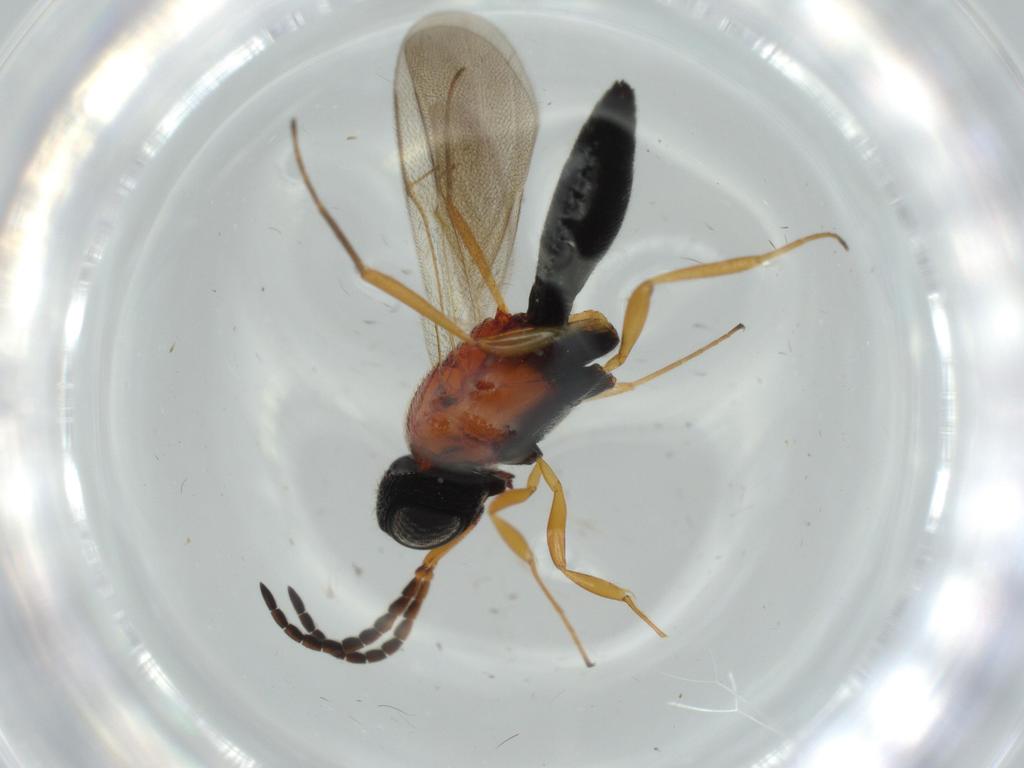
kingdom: Animalia
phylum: Arthropoda
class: Insecta
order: Hymenoptera
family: Scelionidae
